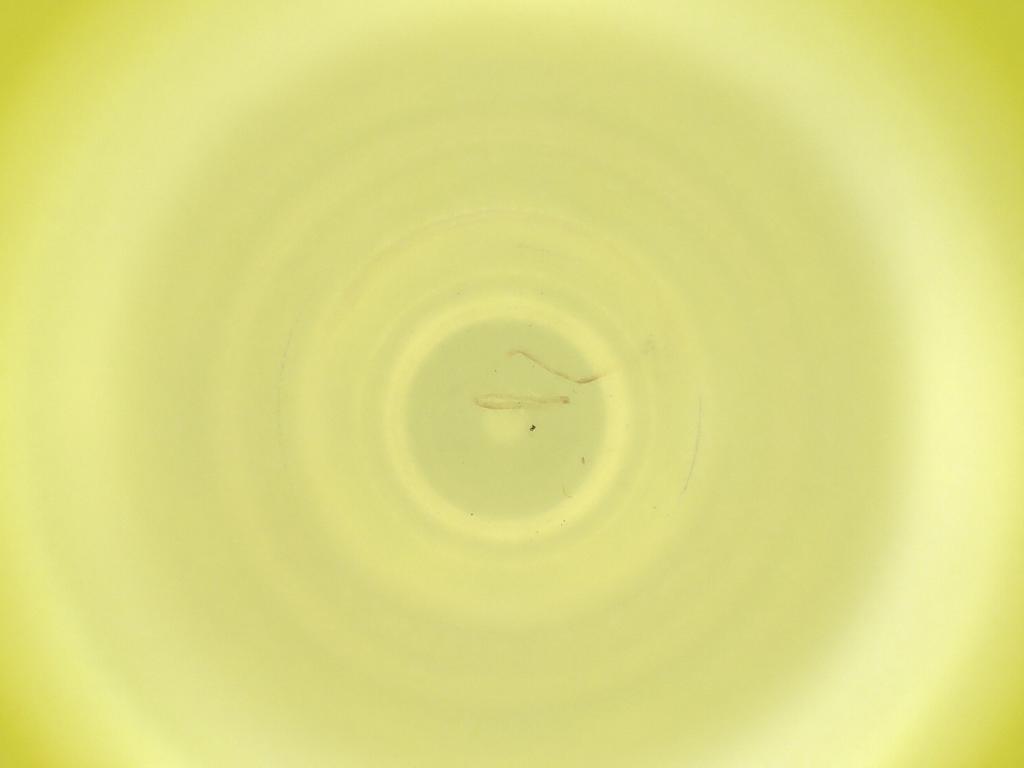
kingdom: Animalia
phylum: Arthropoda
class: Insecta
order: Diptera
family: Cecidomyiidae
